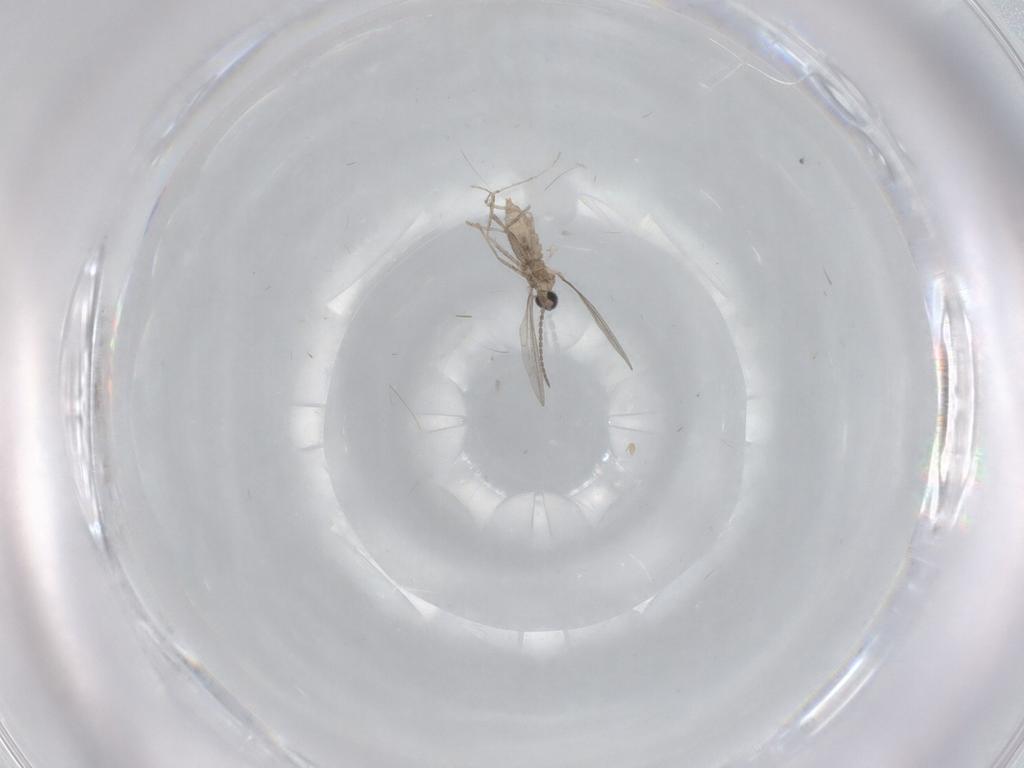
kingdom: Animalia
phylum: Arthropoda
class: Insecta
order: Diptera
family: Cecidomyiidae
